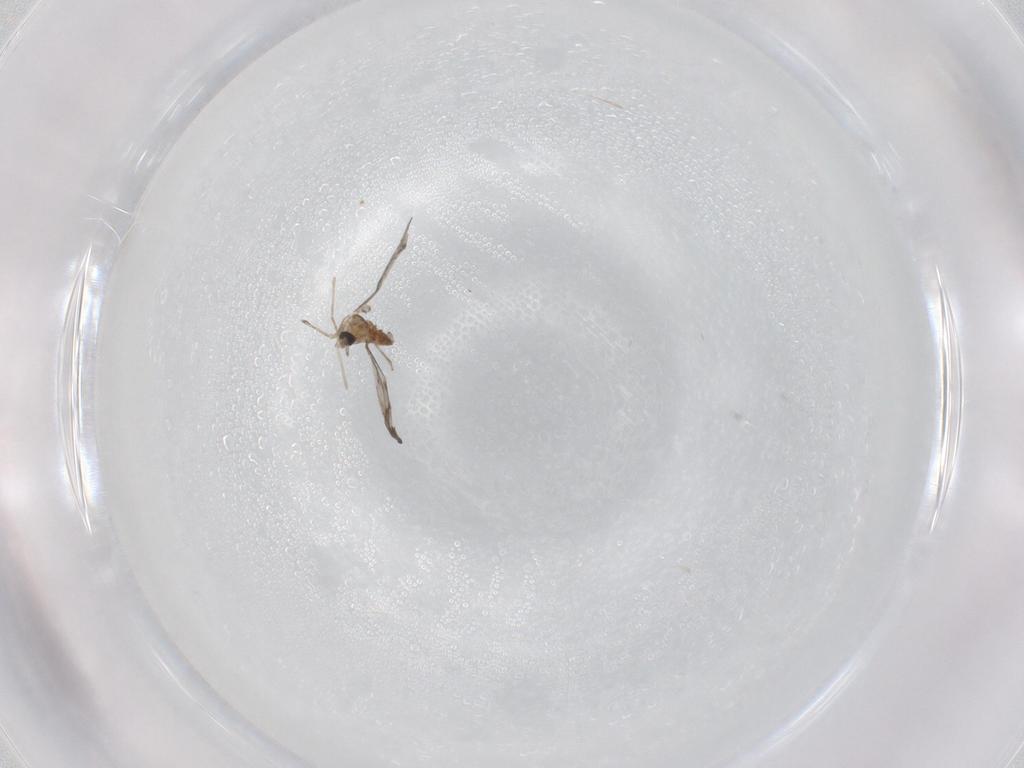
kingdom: Animalia
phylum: Arthropoda
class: Insecta
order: Diptera
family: Cecidomyiidae
